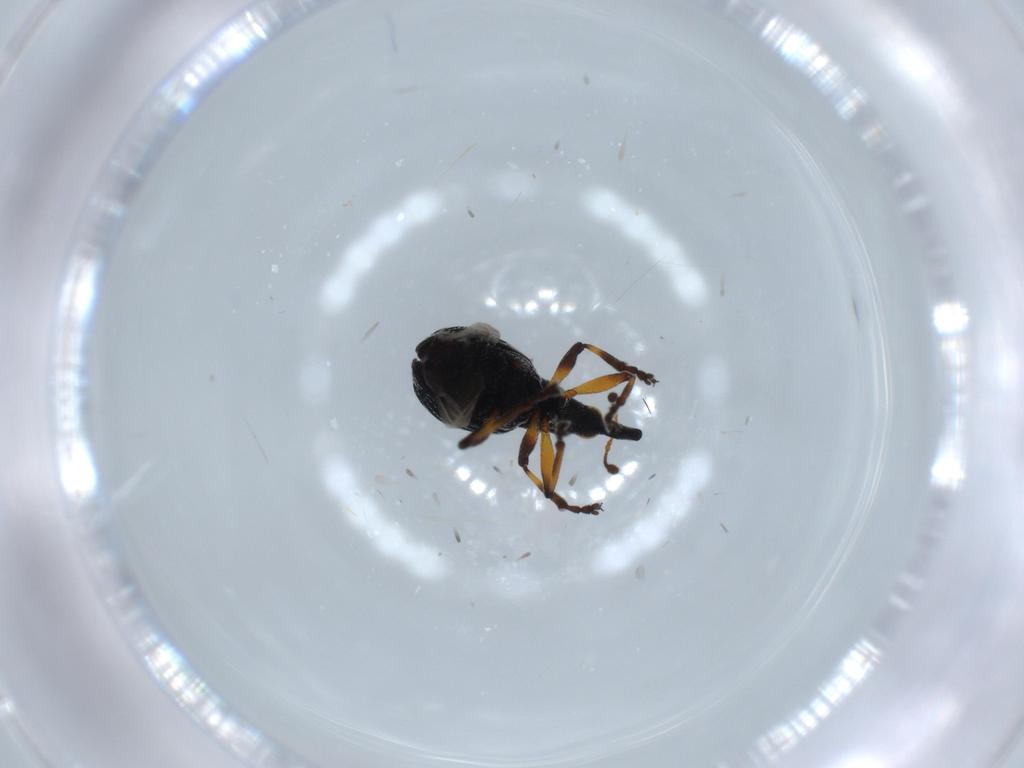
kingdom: Animalia
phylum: Arthropoda
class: Insecta
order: Coleoptera
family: Brentidae
